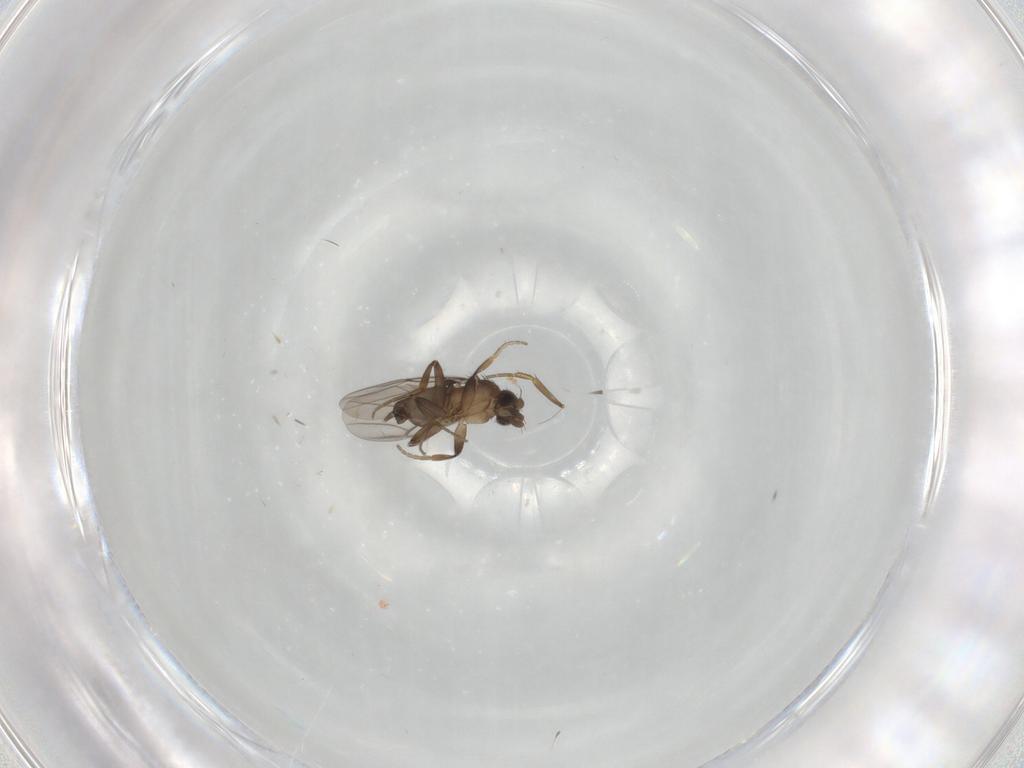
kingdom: Animalia
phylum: Arthropoda
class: Insecta
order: Diptera
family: Phoridae
